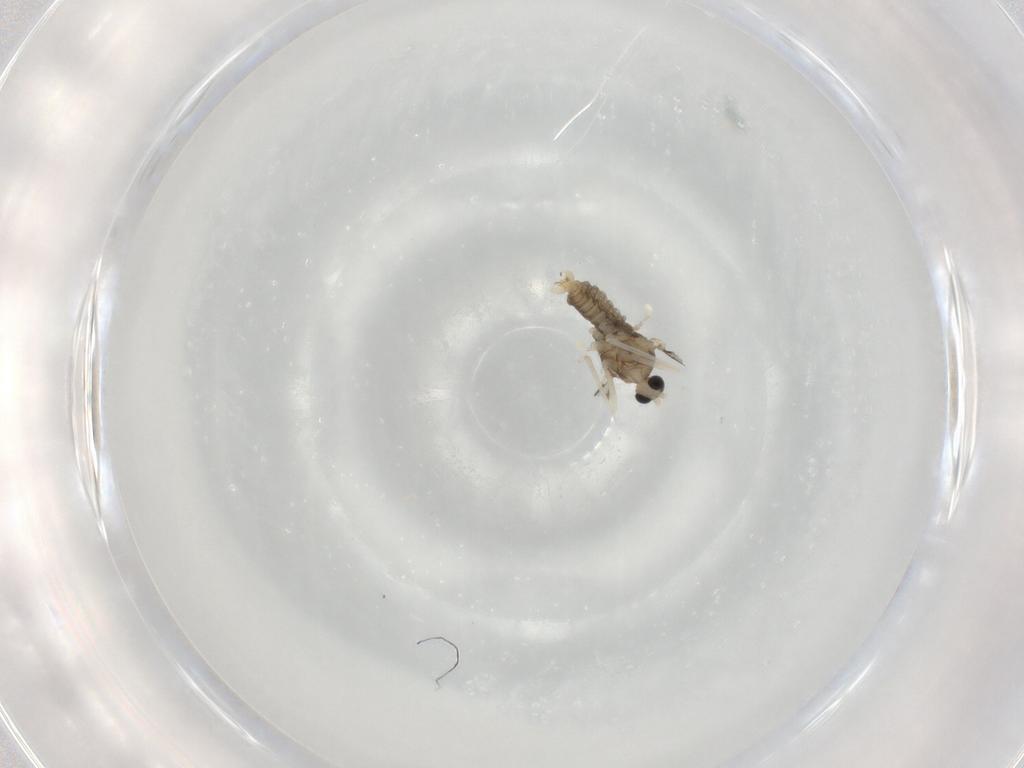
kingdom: Animalia
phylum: Arthropoda
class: Insecta
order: Diptera
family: Cecidomyiidae
